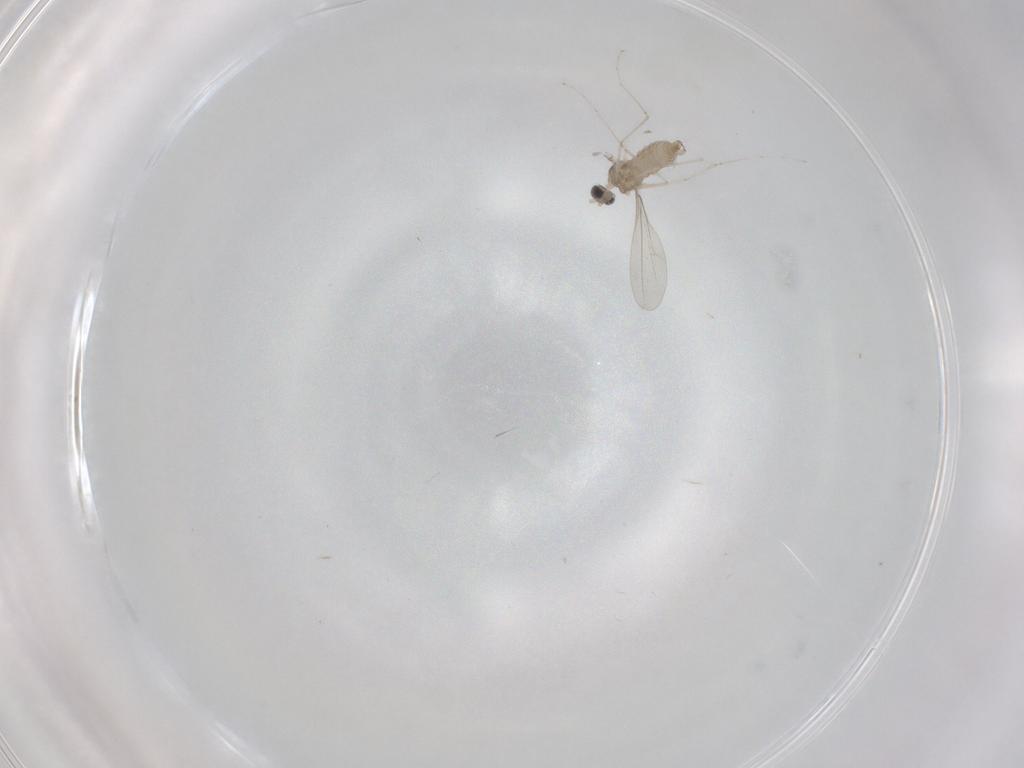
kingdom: Animalia
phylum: Arthropoda
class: Insecta
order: Diptera
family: Cecidomyiidae
